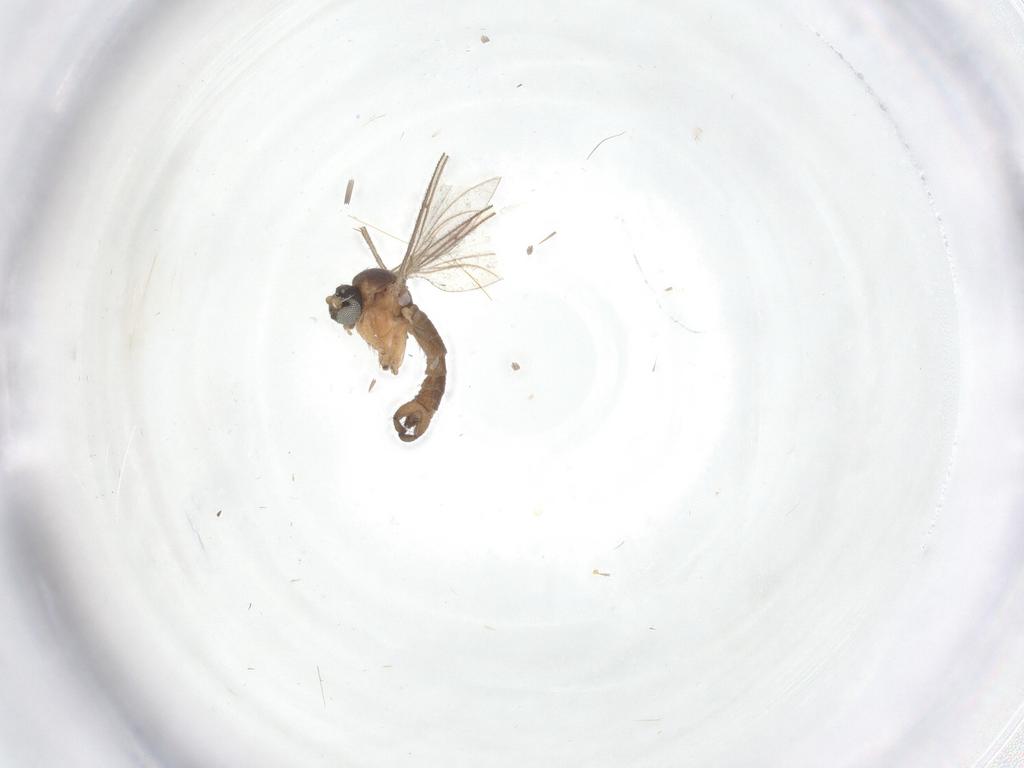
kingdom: Animalia
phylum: Arthropoda
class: Insecta
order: Diptera
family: Sciaridae
